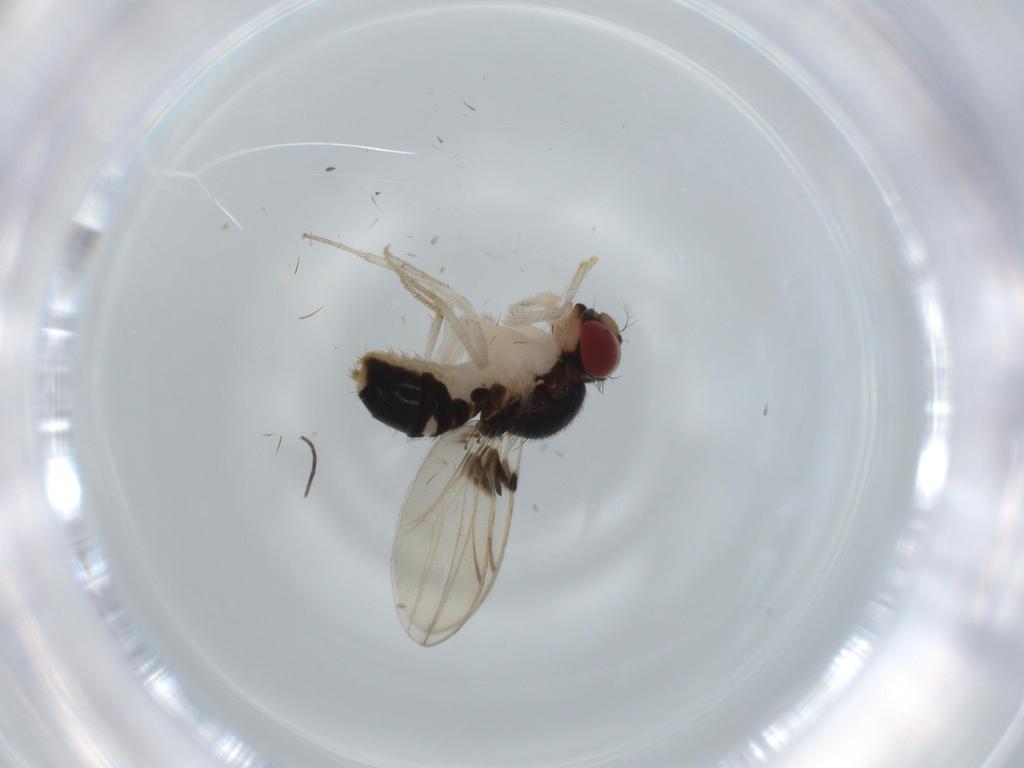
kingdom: Animalia
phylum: Arthropoda
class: Insecta
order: Diptera
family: Drosophilidae
